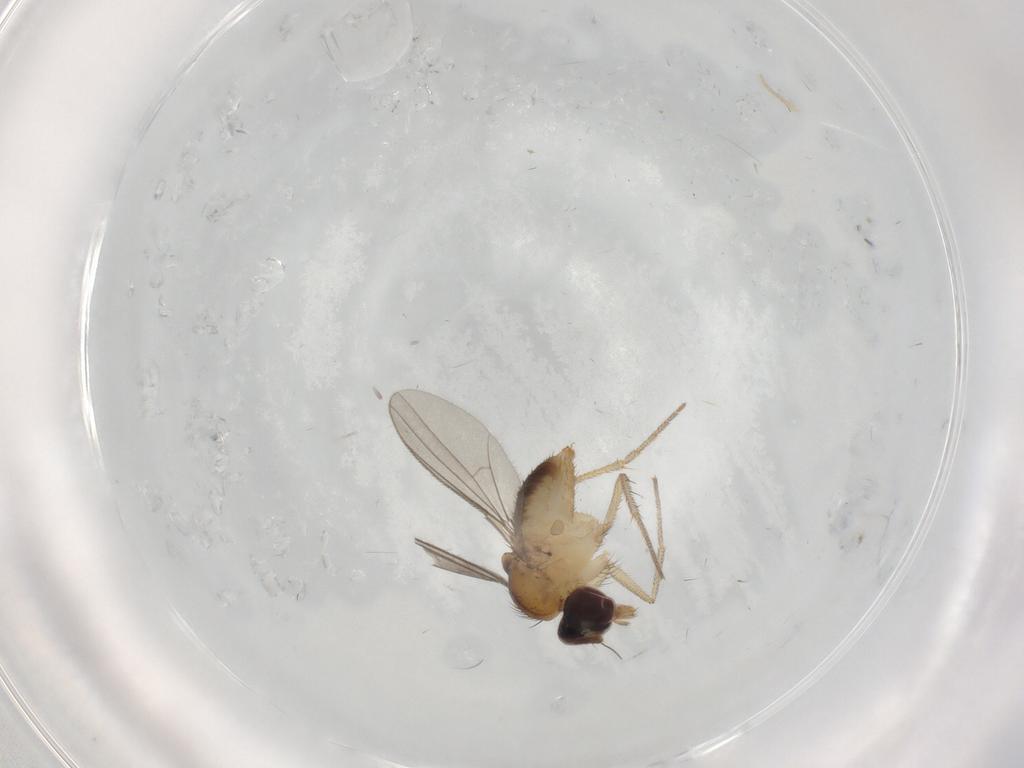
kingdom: Animalia
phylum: Arthropoda
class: Insecta
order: Diptera
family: Dolichopodidae
